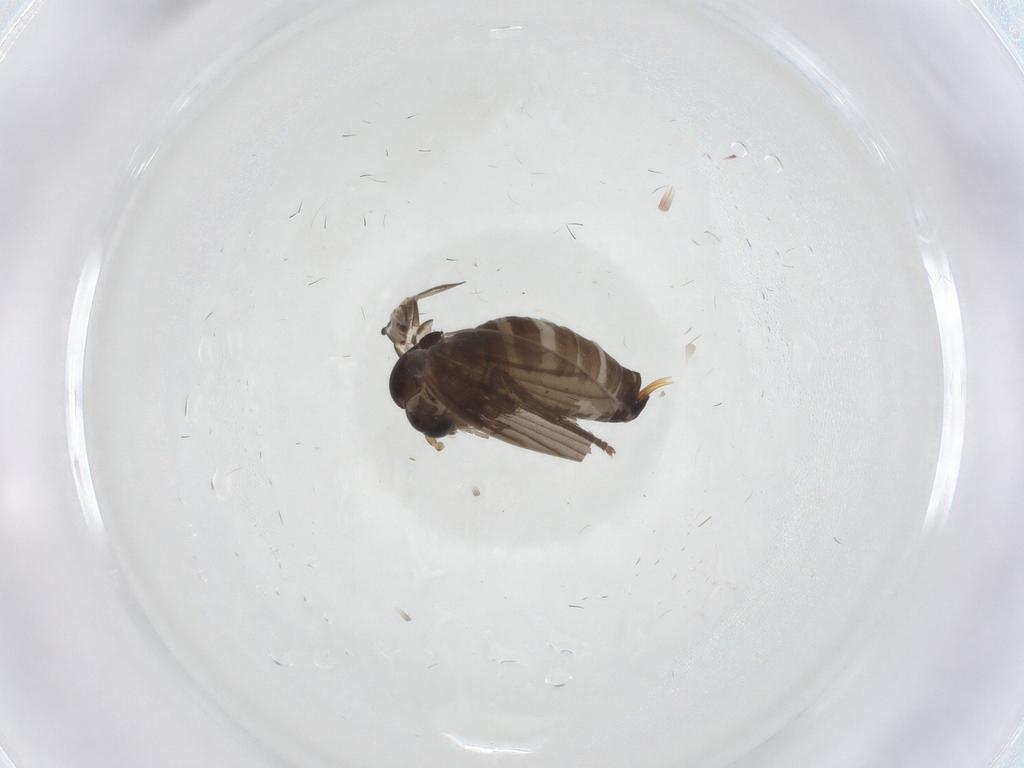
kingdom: Animalia
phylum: Arthropoda
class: Insecta
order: Diptera
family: Psychodidae
